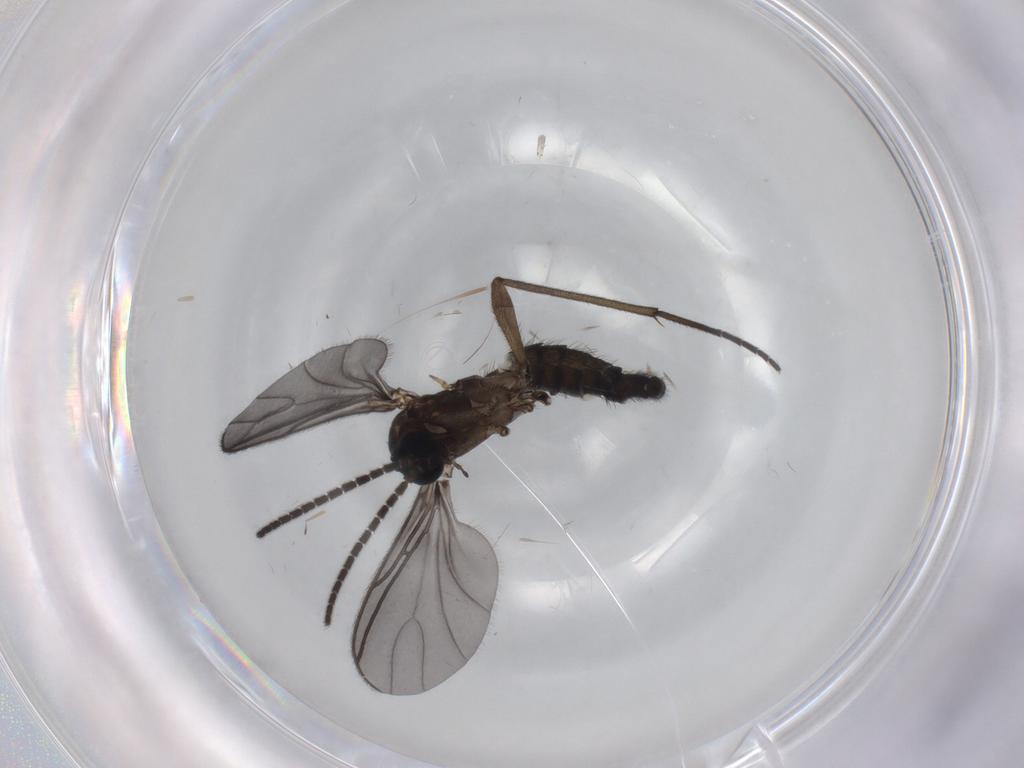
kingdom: Animalia
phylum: Arthropoda
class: Insecta
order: Diptera
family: Sciaridae
